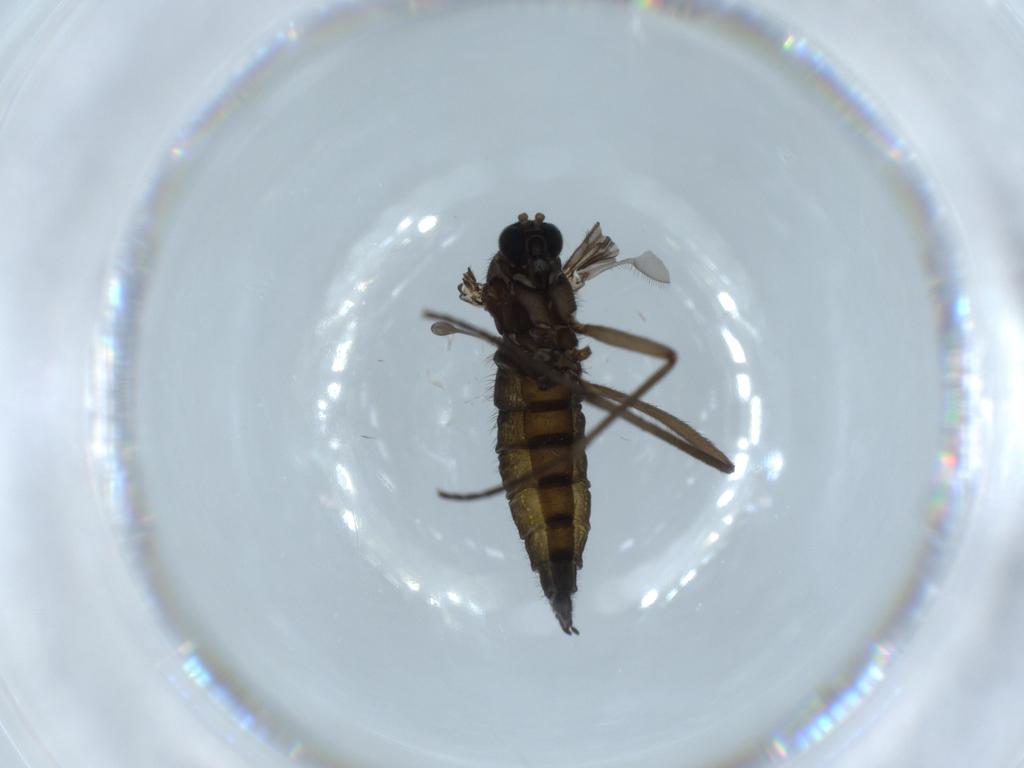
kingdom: Animalia
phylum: Arthropoda
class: Insecta
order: Diptera
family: Sciaridae
